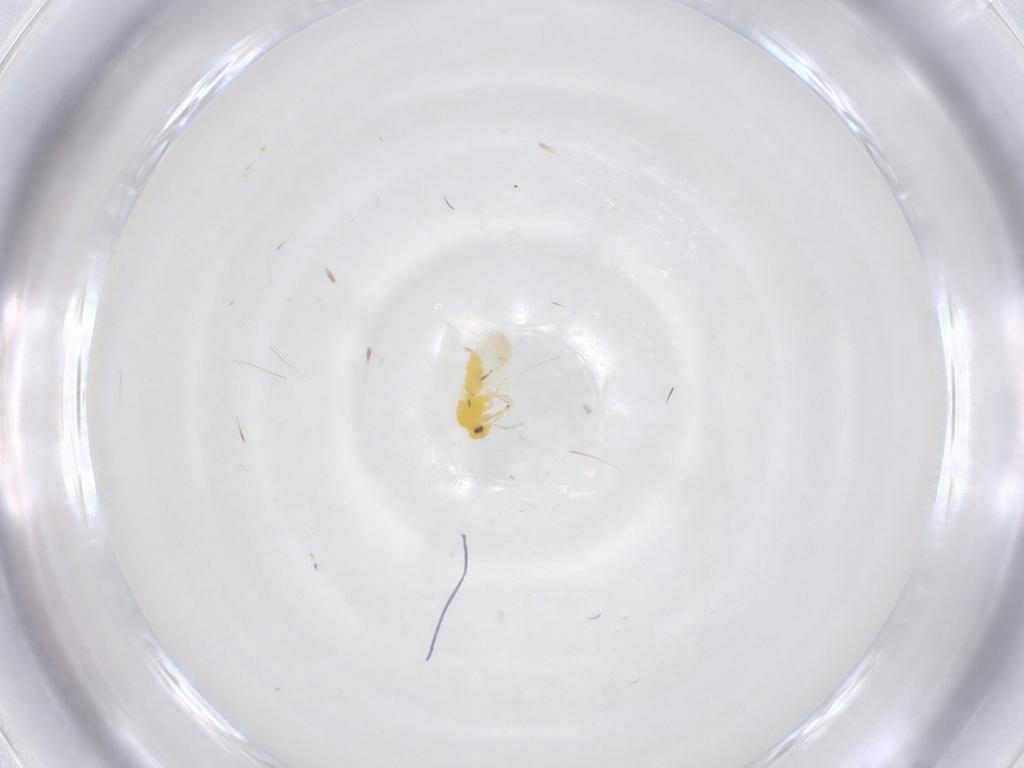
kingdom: Animalia
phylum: Arthropoda
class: Insecta
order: Hemiptera
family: Aleyrodidae
